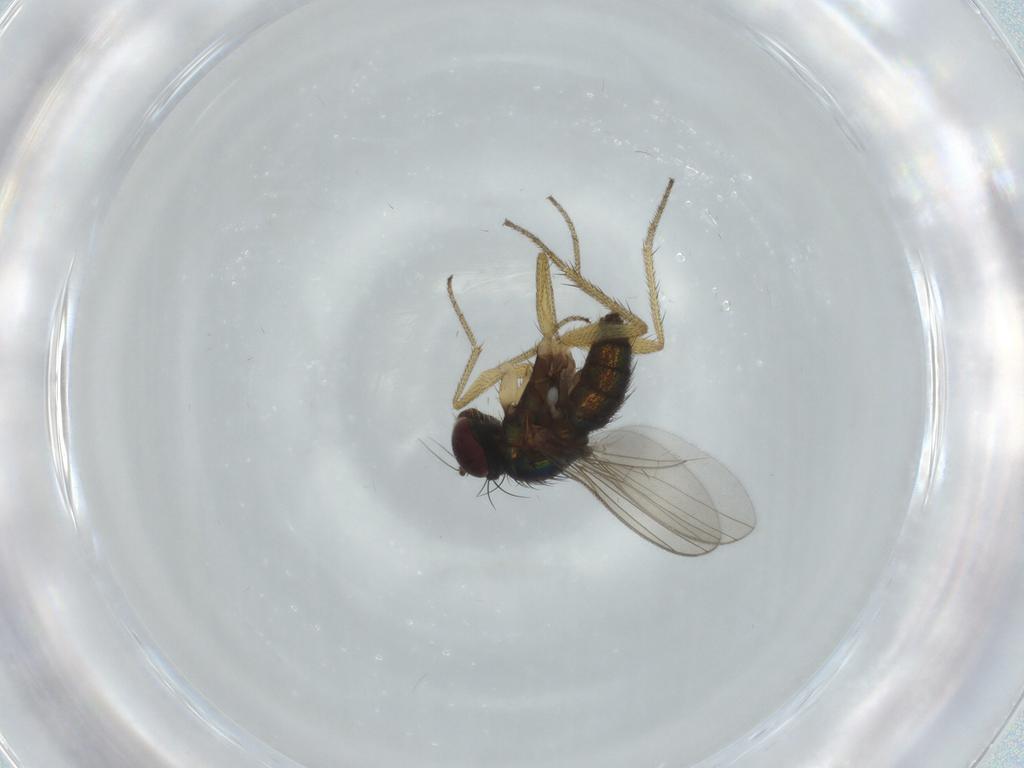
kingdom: Animalia
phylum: Arthropoda
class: Insecta
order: Diptera
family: Dolichopodidae
